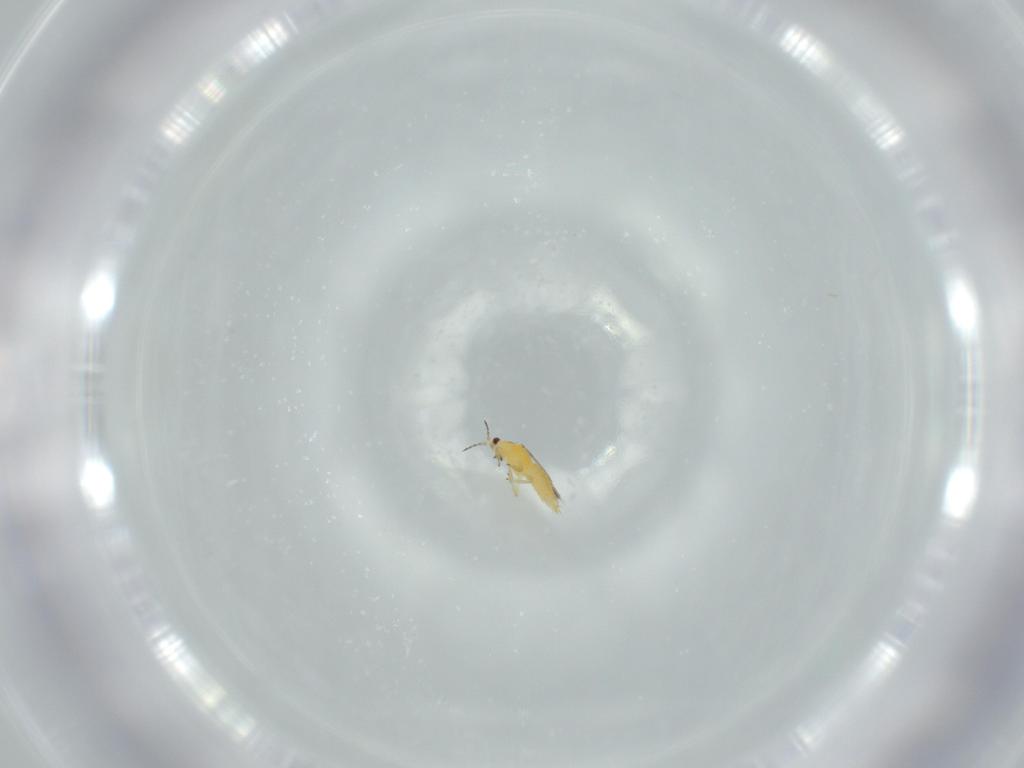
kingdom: Animalia
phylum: Arthropoda
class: Insecta
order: Thysanoptera
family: Thripidae
